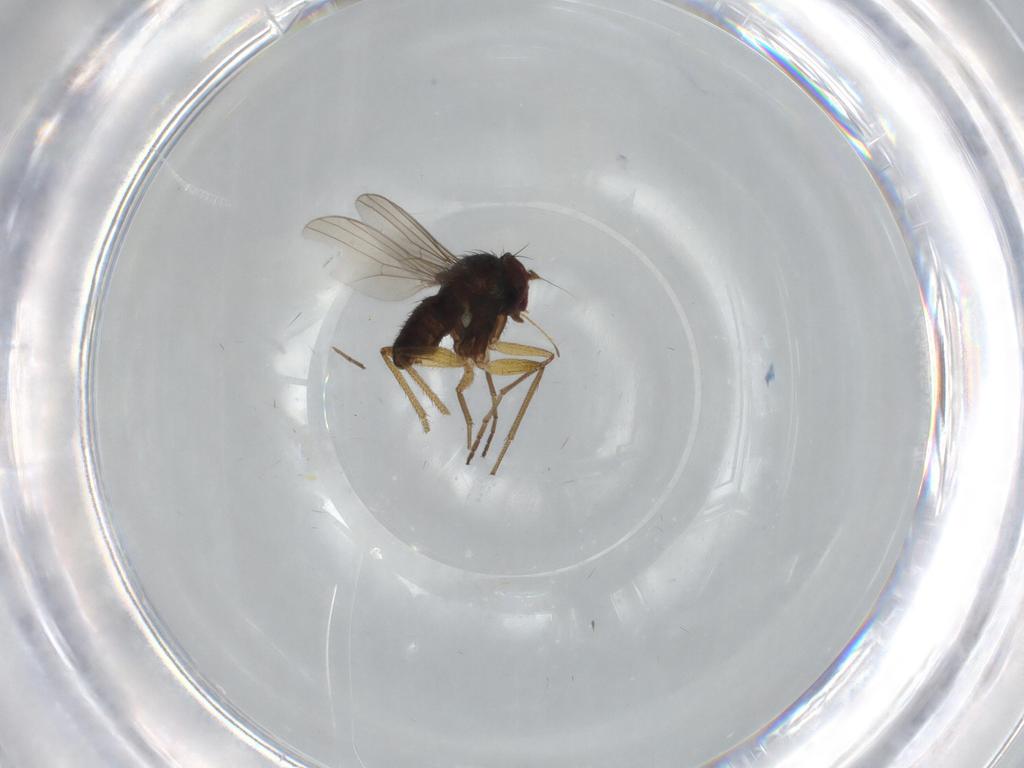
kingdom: Animalia
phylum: Arthropoda
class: Insecta
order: Diptera
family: Dolichopodidae
